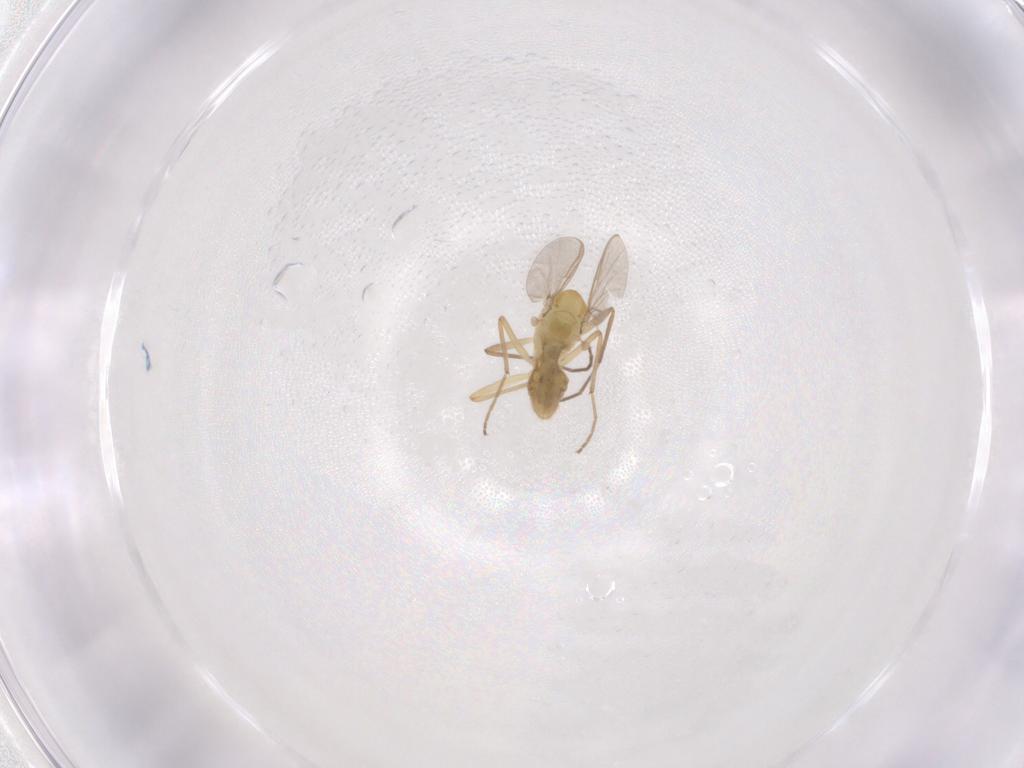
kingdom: Animalia
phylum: Arthropoda
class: Insecta
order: Diptera
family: Chironomidae
